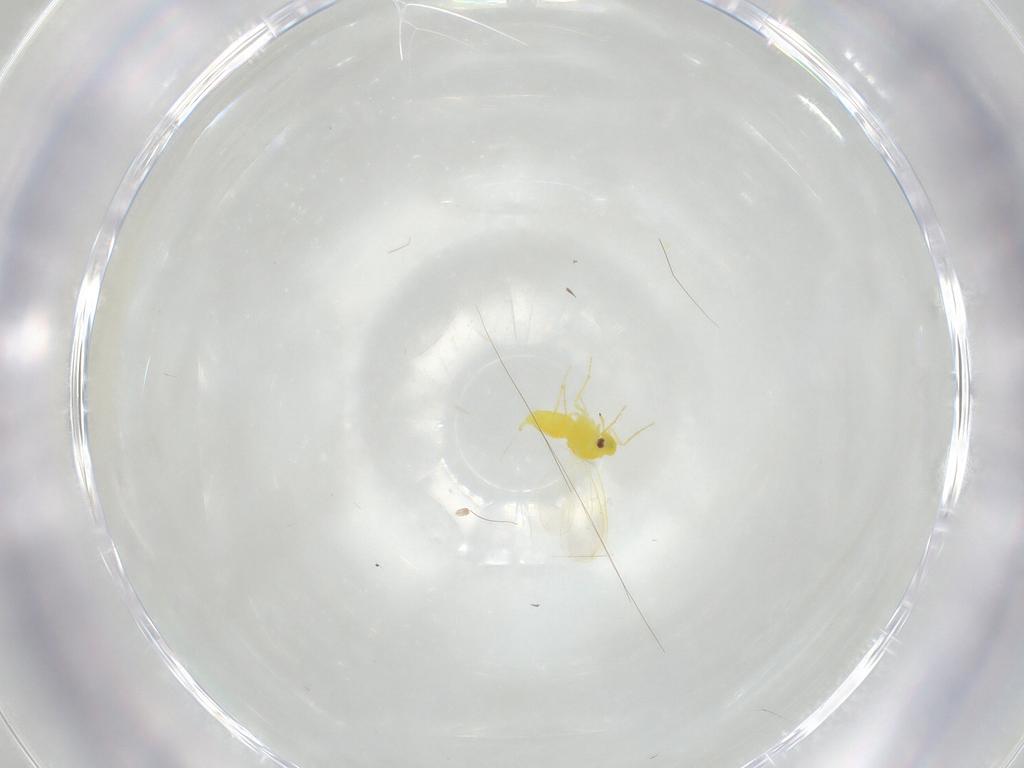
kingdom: Animalia
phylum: Arthropoda
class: Insecta
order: Hemiptera
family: Aleyrodidae
